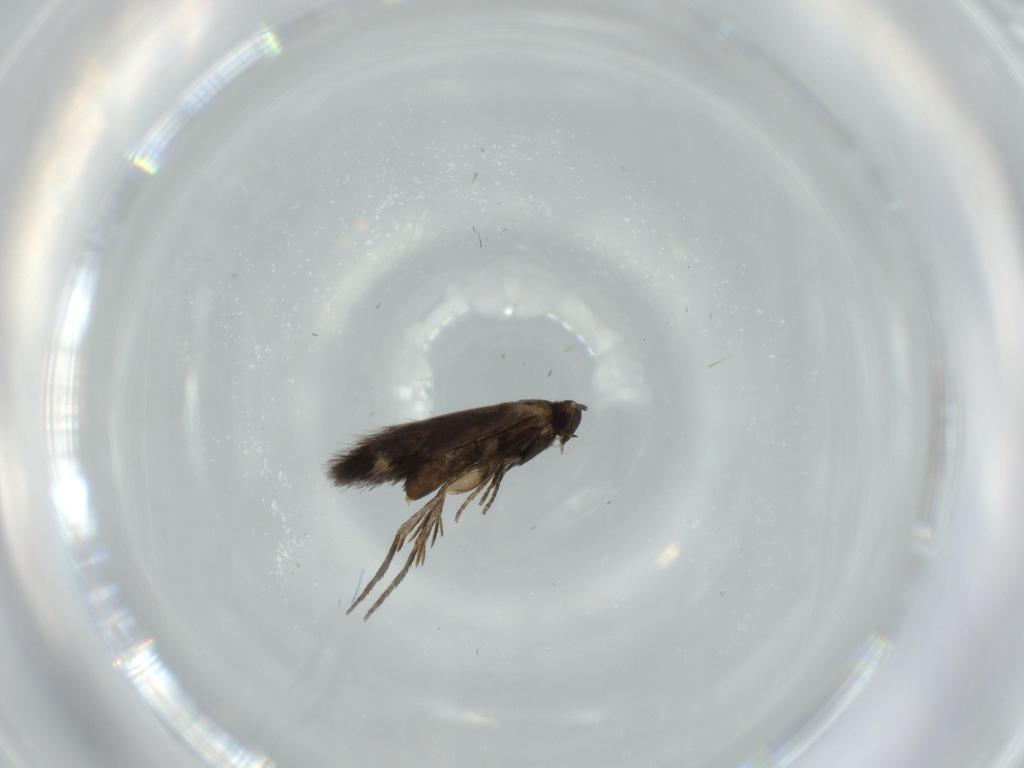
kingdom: Animalia
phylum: Arthropoda
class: Insecta
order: Lepidoptera
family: Heliozelidae
